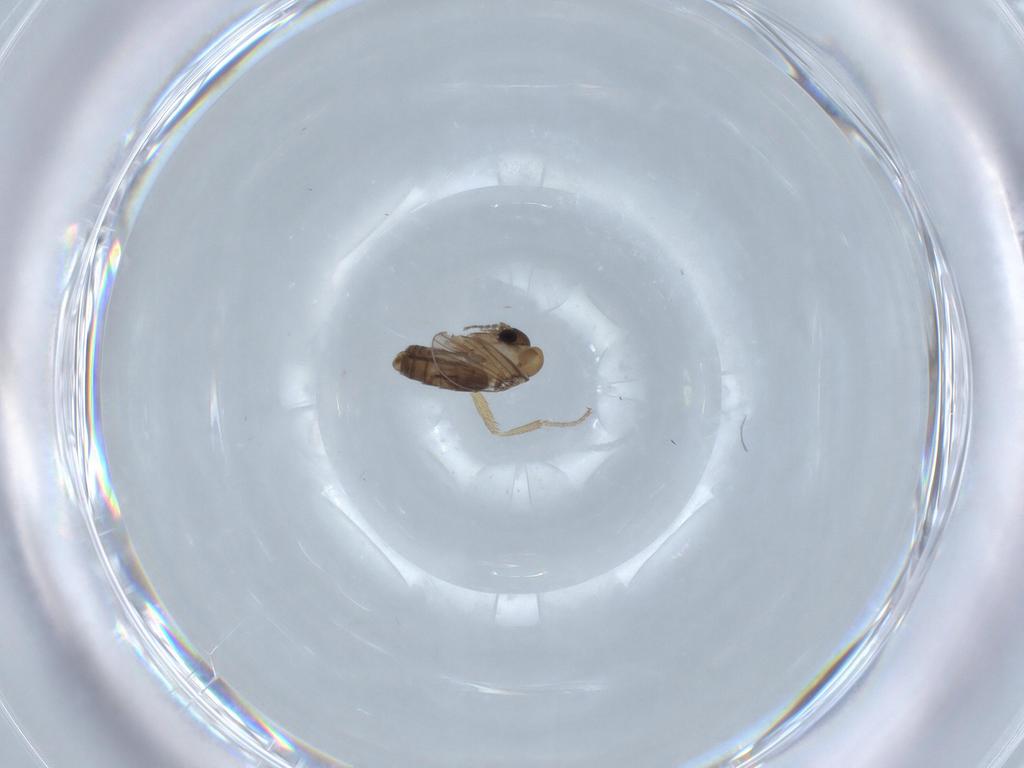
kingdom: Animalia
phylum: Arthropoda
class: Insecta
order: Diptera
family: Drosophilidae
